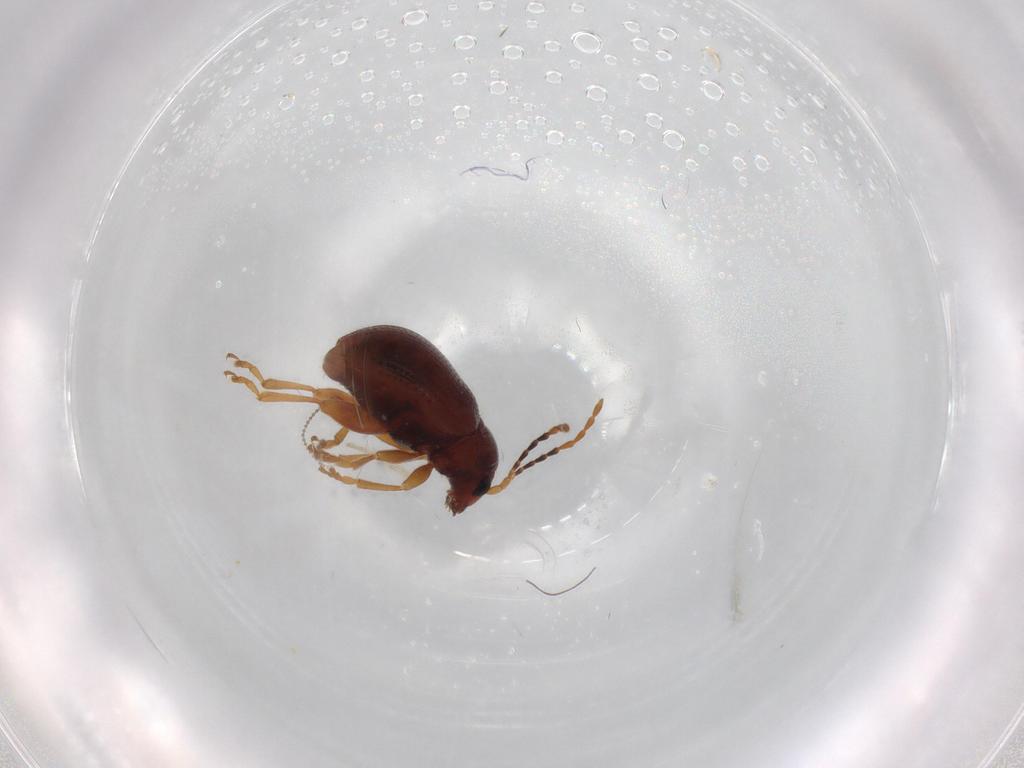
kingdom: Animalia
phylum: Arthropoda
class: Insecta
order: Coleoptera
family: Chrysomelidae
